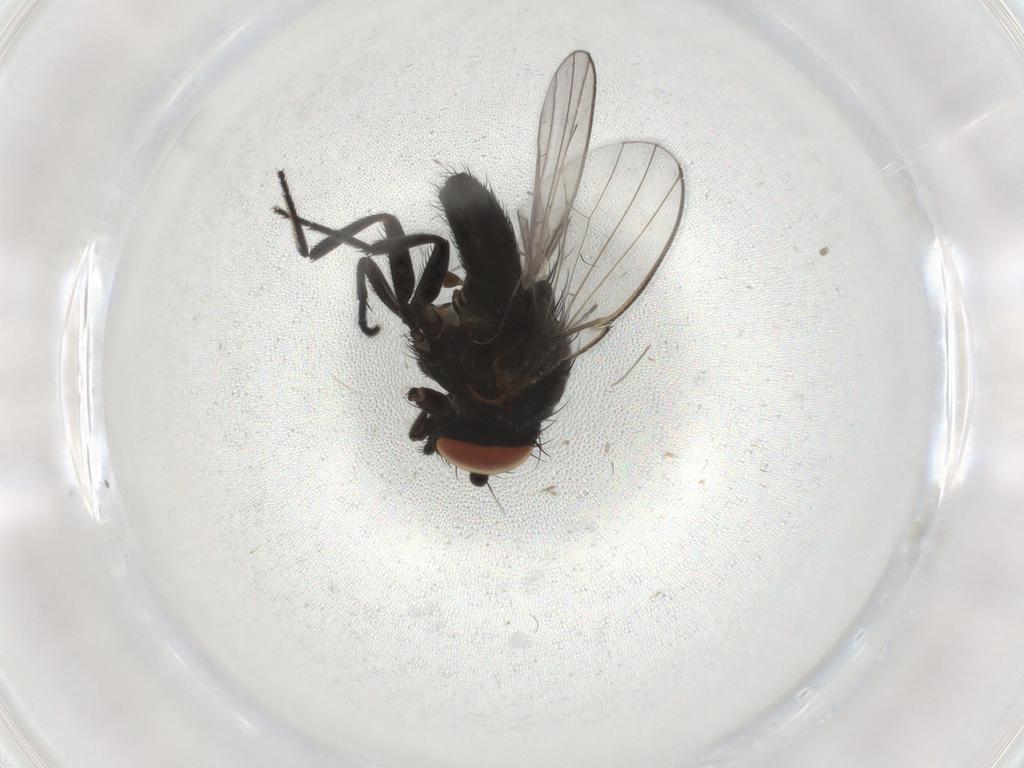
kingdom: Animalia
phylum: Arthropoda
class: Insecta
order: Diptera
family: Milichiidae
